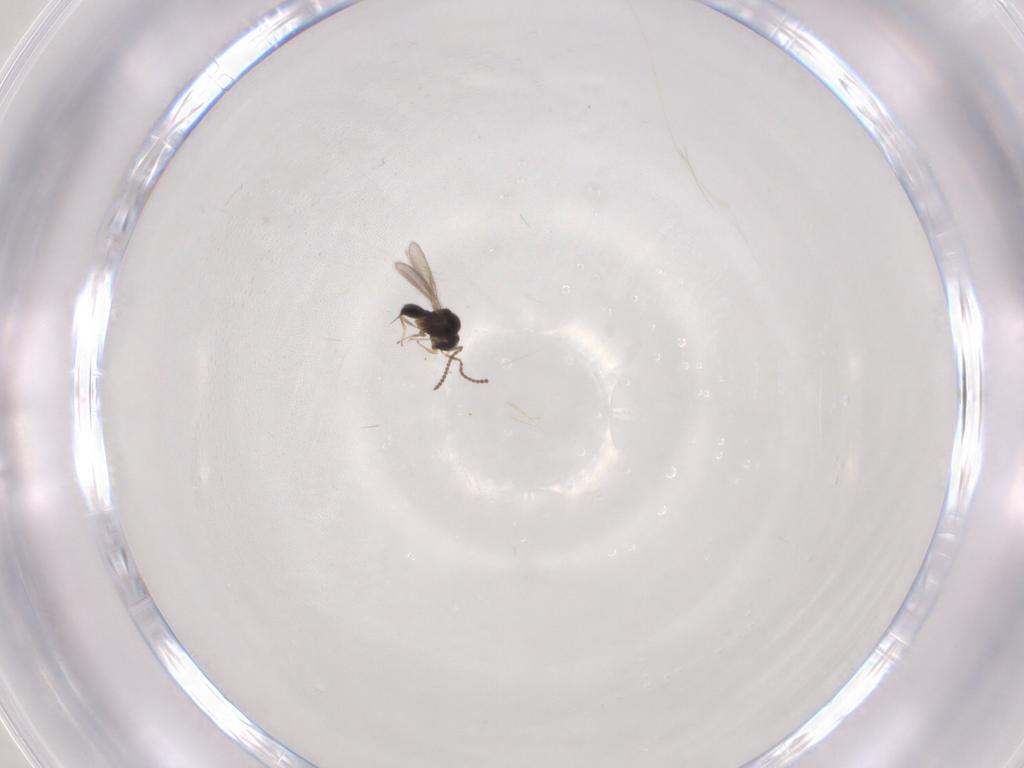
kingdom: Animalia
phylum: Arthropoda
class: Insecta
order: Hymenoptera
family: Scelionidae
